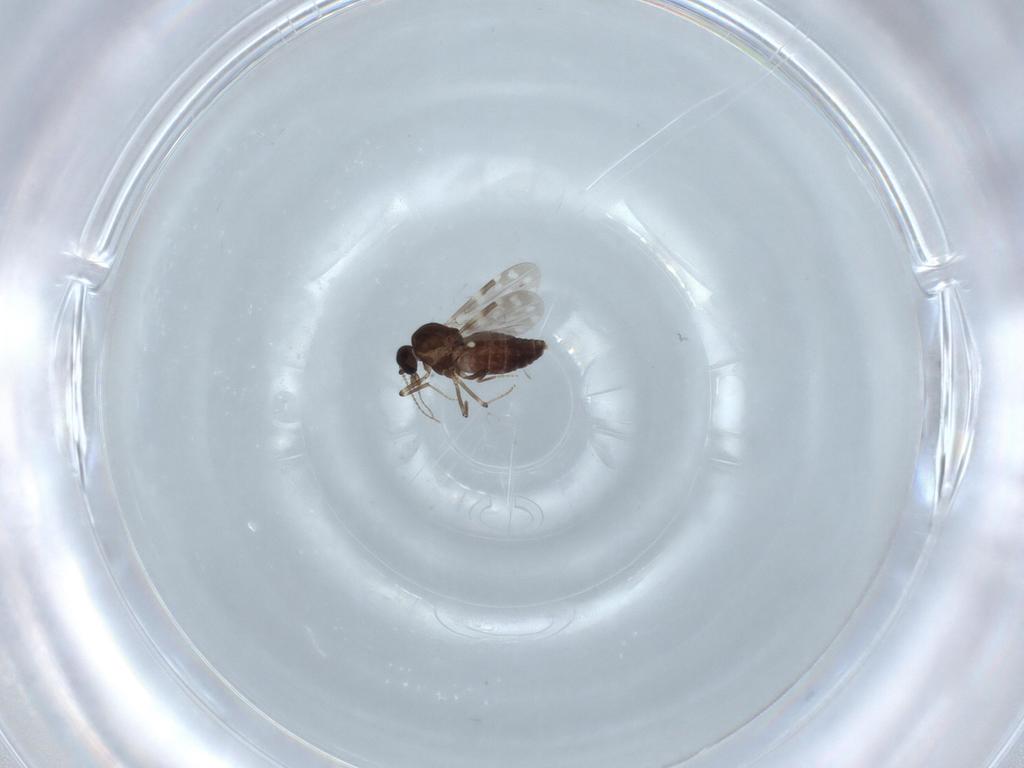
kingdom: Animalia
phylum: Arthropoda
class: Insecta
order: Diptera
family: Ceratopogonidae
